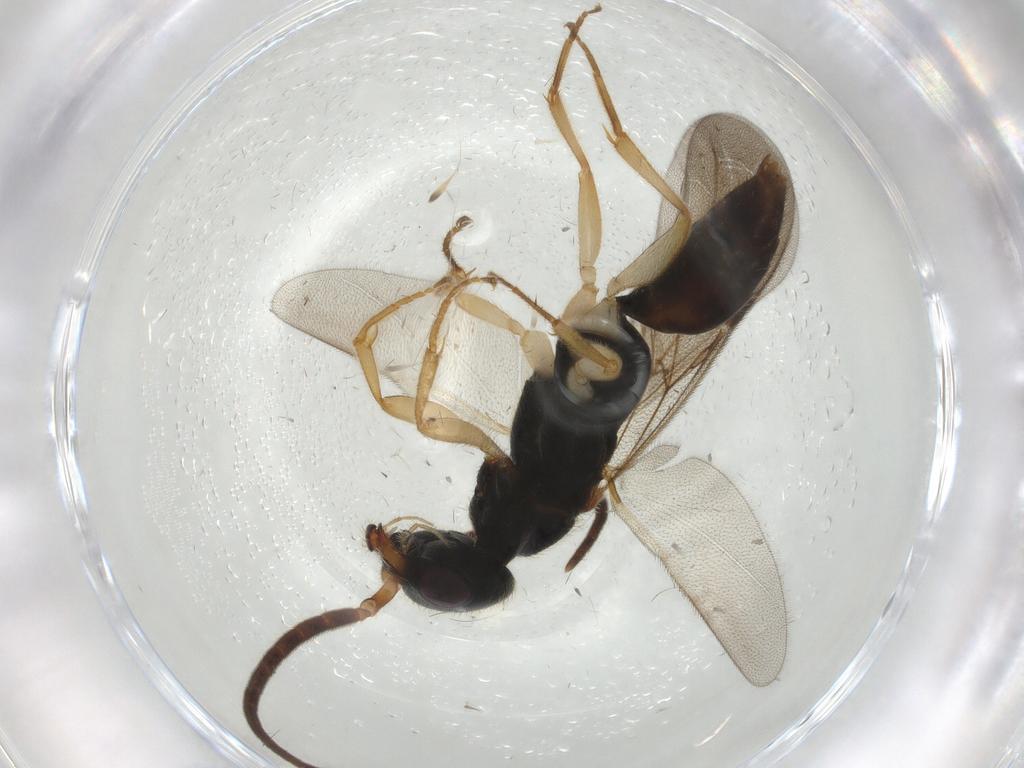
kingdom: Animalia
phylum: Arthropoda
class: Insecta
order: Hymenoptera
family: Bethylidae
